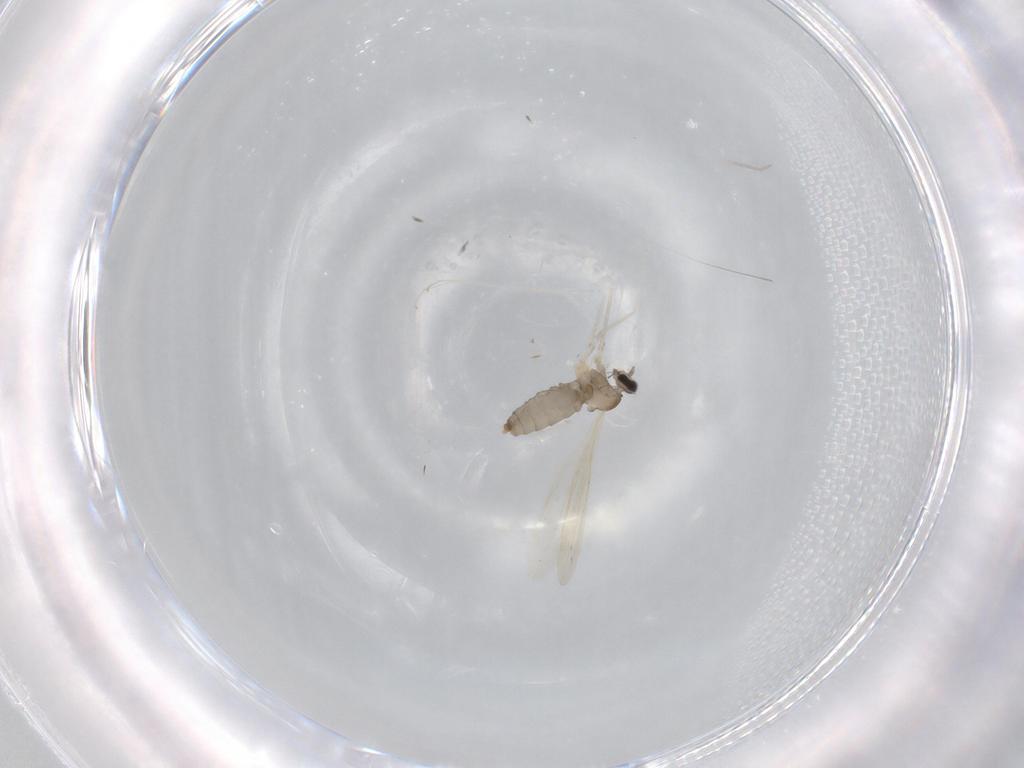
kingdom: Animalia
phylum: Arthropoda
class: Insecta
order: Diptera
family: Cecidomyiidae
